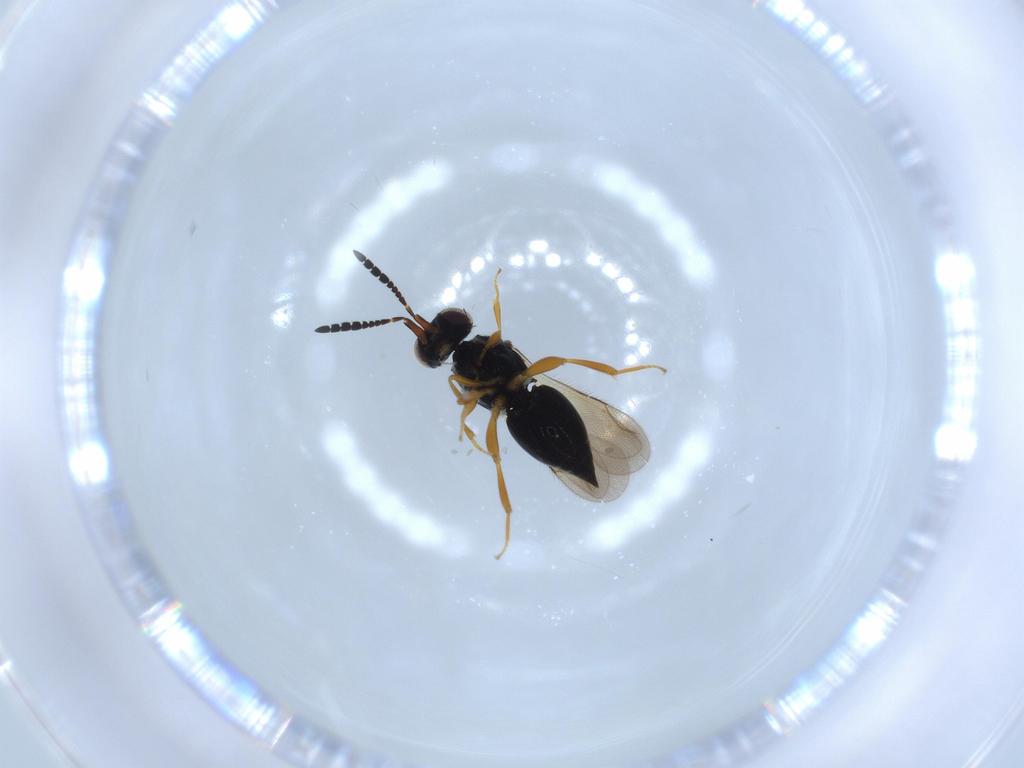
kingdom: Animalia
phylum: Arthropoda
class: Insecta
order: Hymenoptera
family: Ceraphronidae
